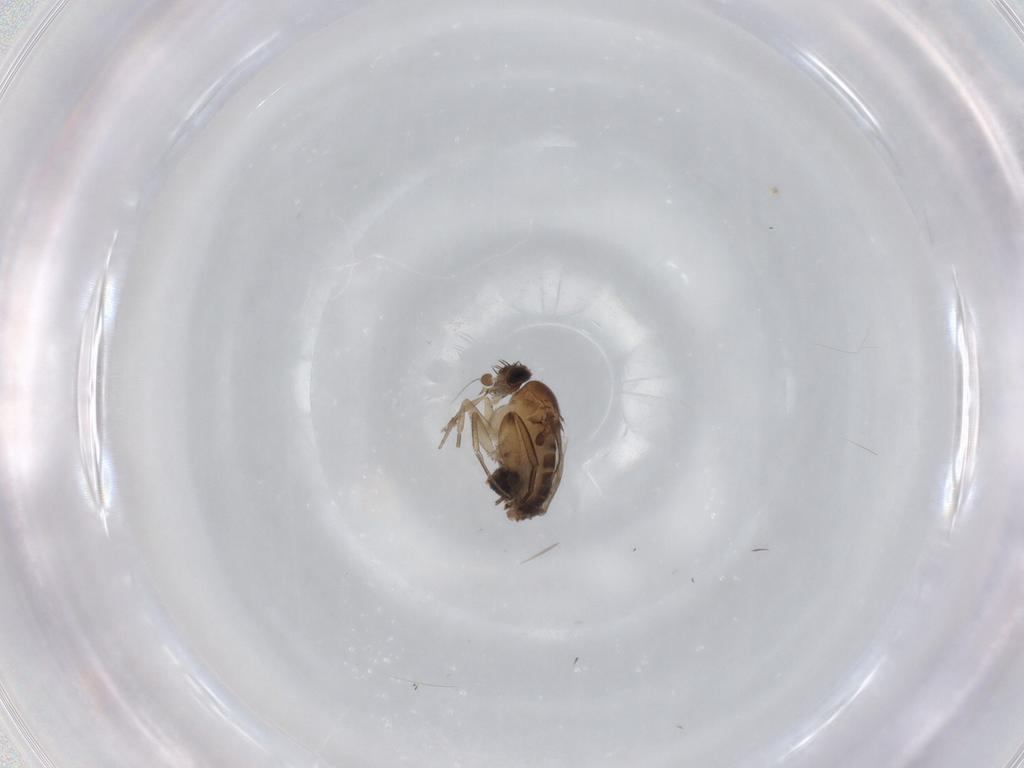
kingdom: Animalia
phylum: Arthropoda
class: Insecta
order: Diptera
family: Phoridae
